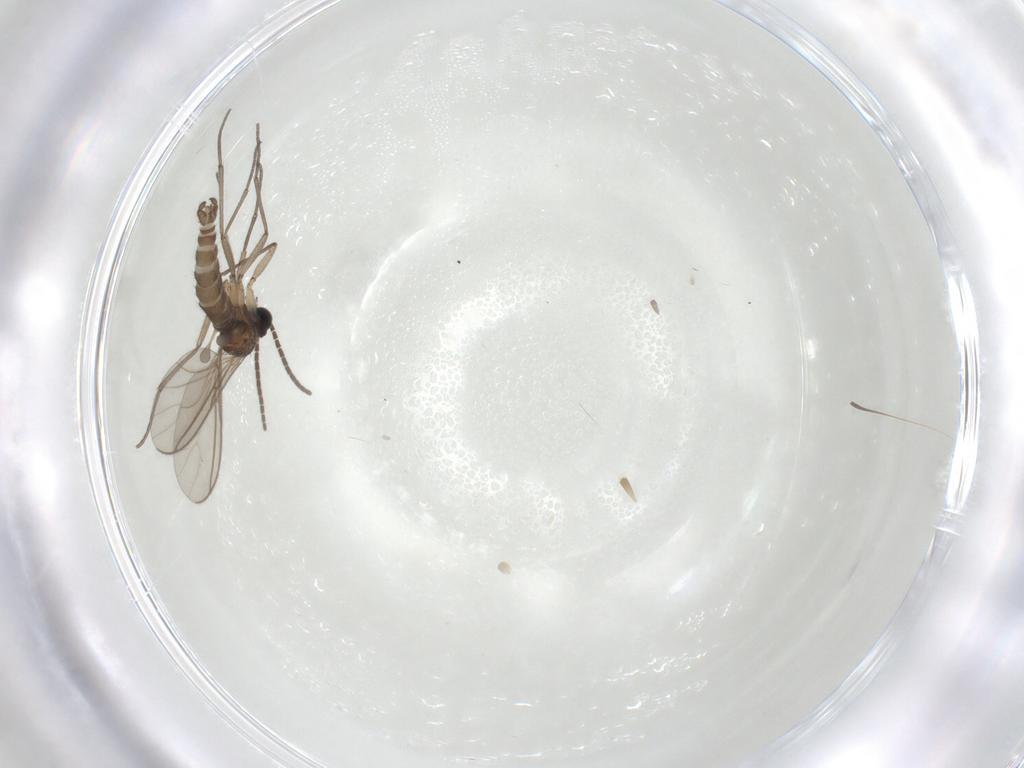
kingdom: Animalia
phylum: Arthropoda
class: Insecta
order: Diptera
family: Sciaridae
